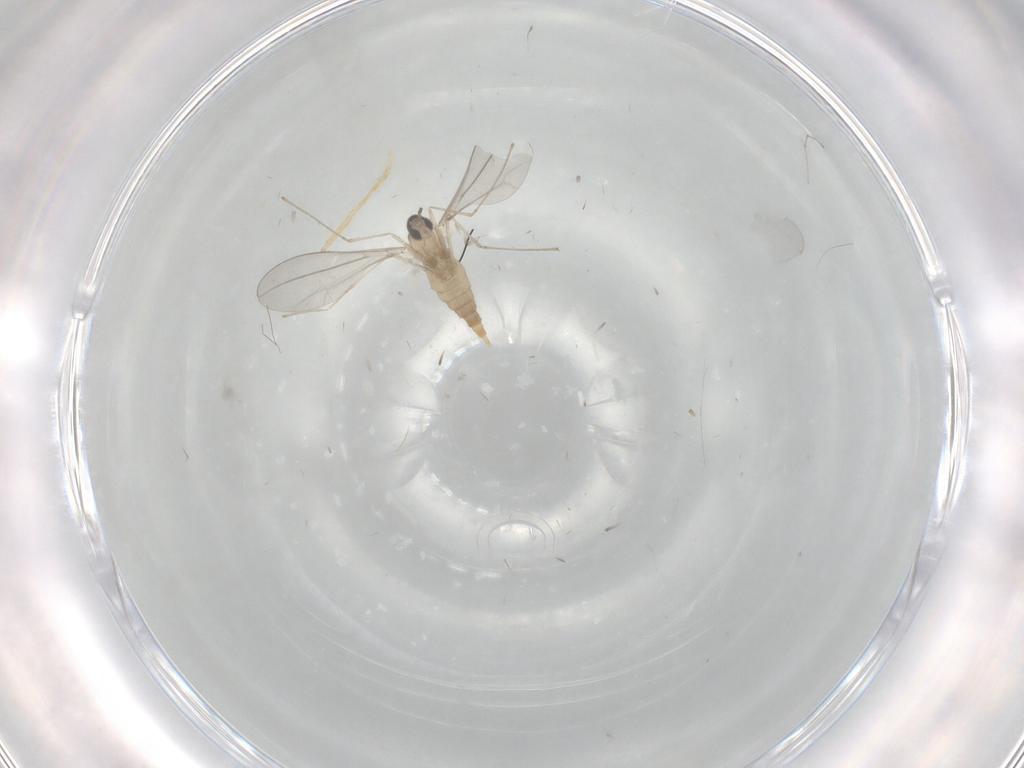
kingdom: Animalia
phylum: Arthropoda
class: Insecta
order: Diptera
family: Chironomidae
